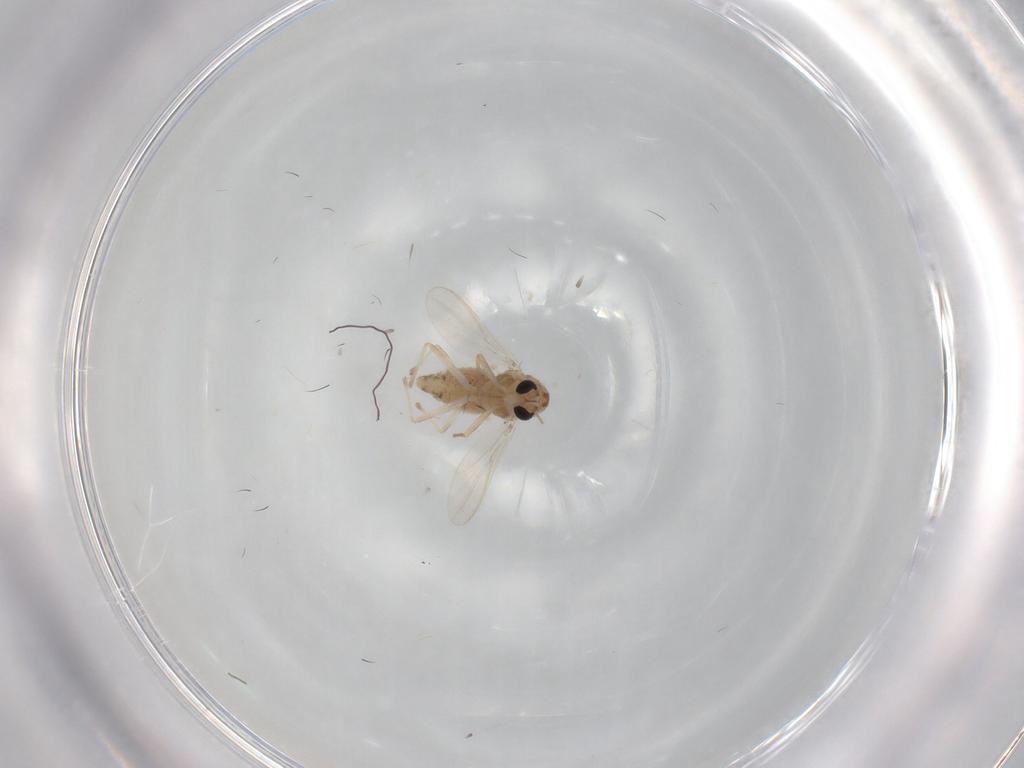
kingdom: Animalia
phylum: Arthropoda
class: Insecta
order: Diptera
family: Chironomidae
